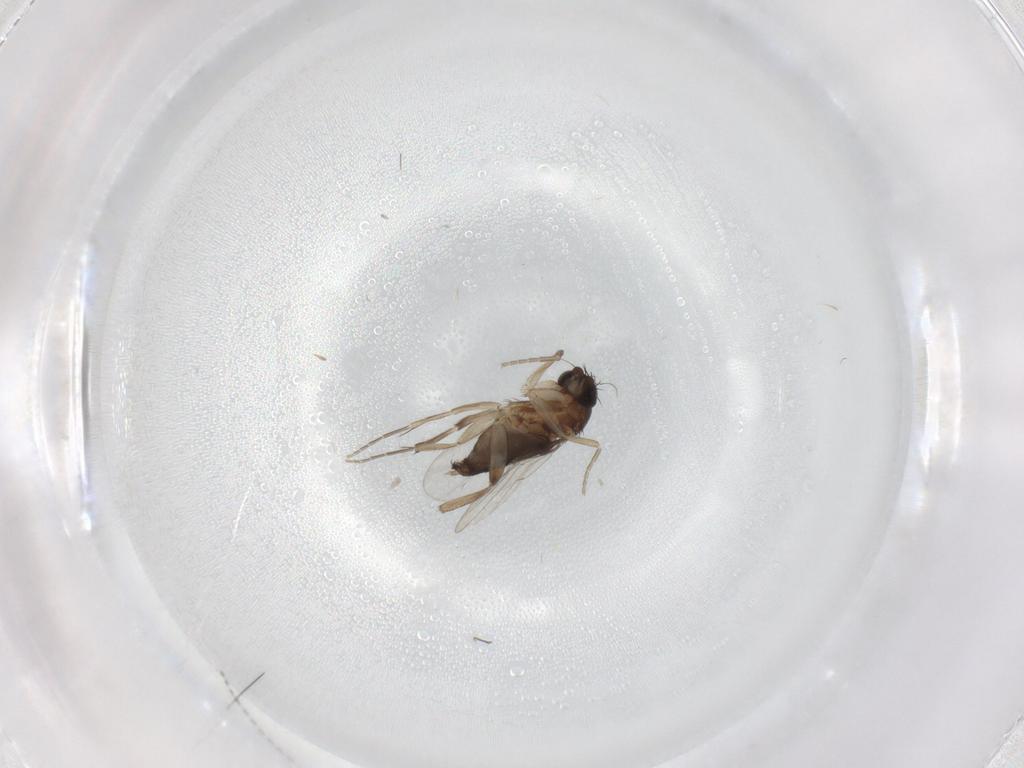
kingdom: Animalia
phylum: Arthropoda
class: Insecta
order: Diptera
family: Phoridae
